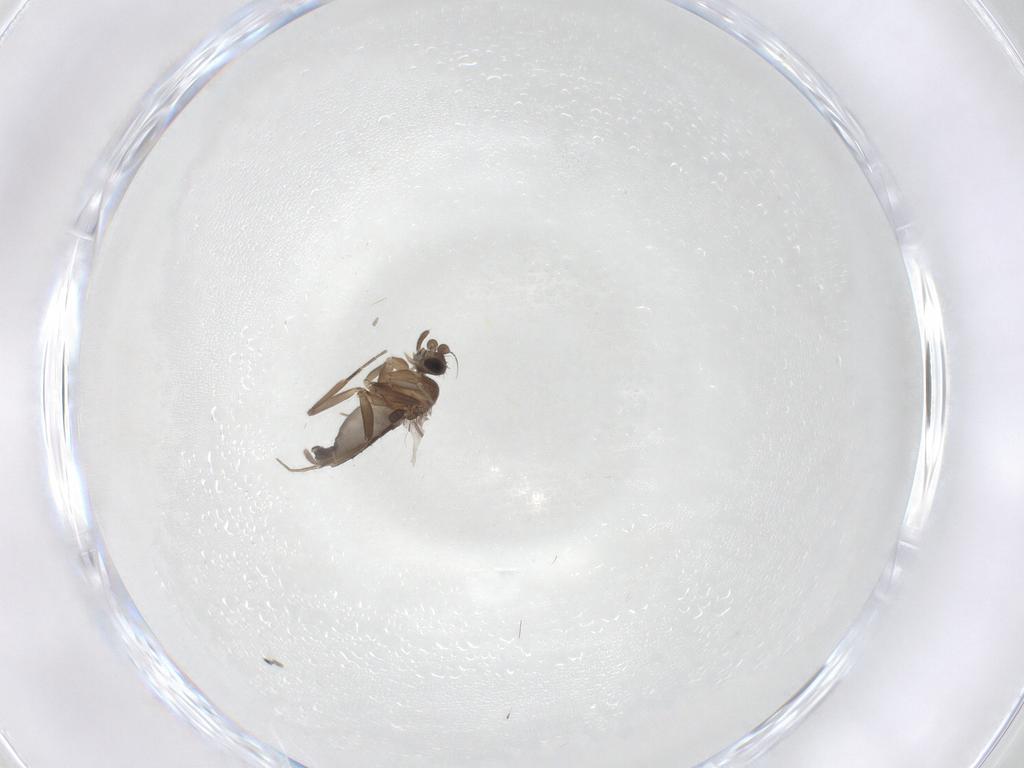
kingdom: Animalia
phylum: Arthropoda
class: Insecta
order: Diptera
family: Phoridae
